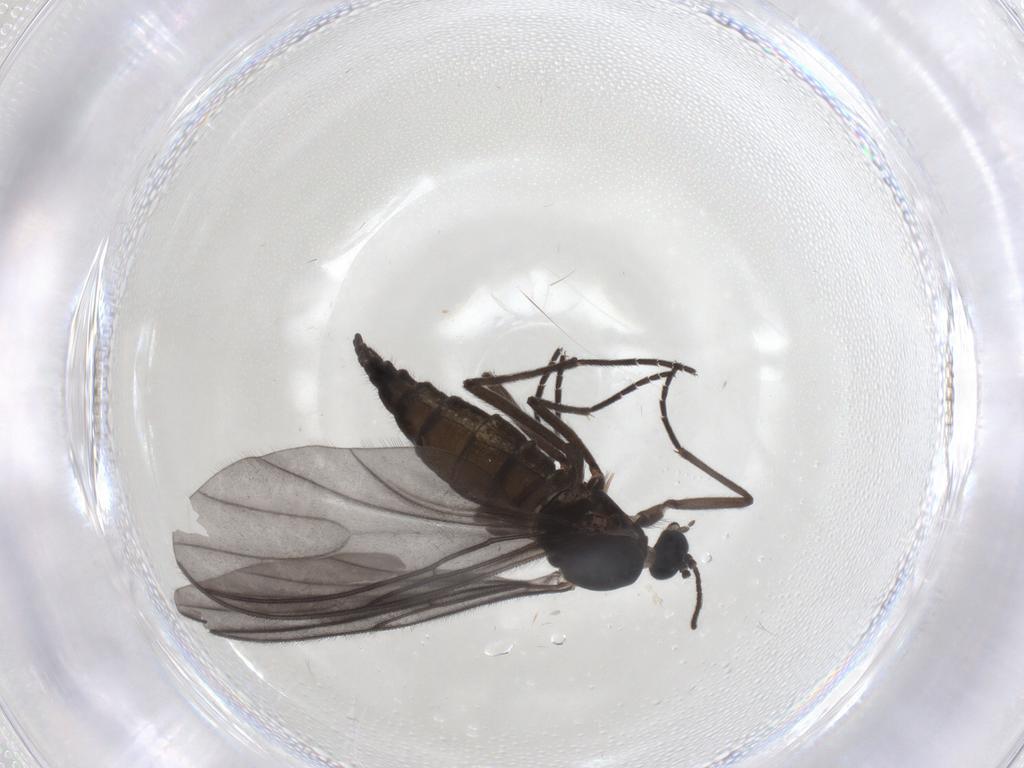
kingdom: Animalia
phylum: Arthropoda
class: Insecta
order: Diptera
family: Sciaridae
